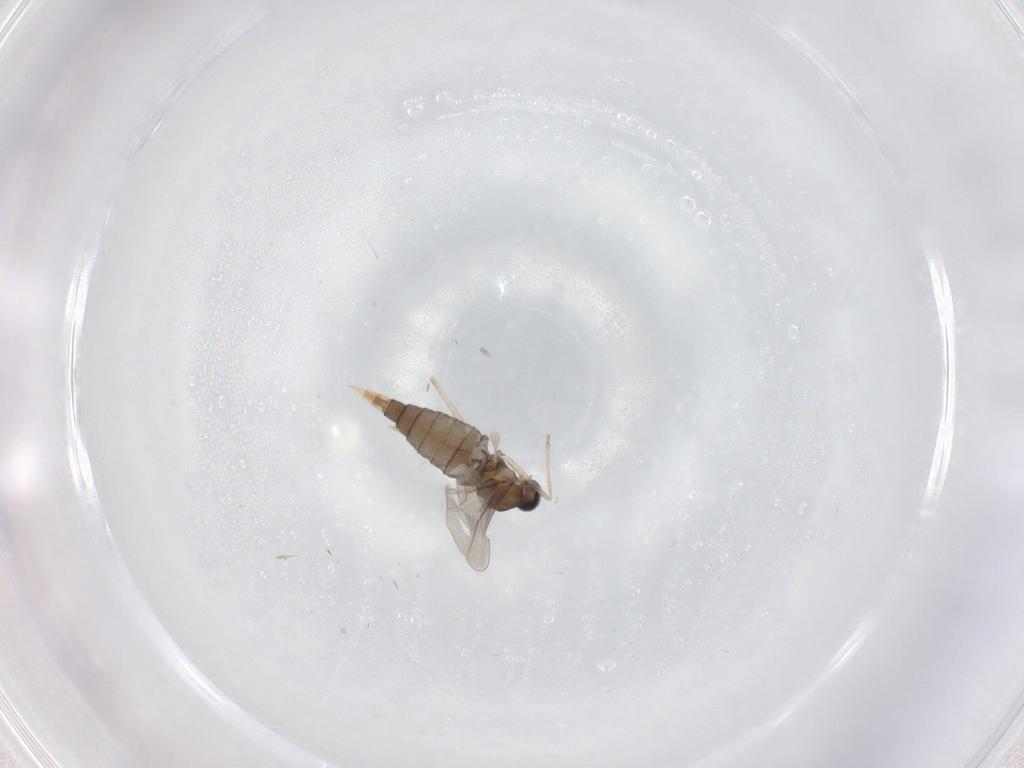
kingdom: Animalia
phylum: Arthropoda
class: Insecta
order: Diptera
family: Cecidomyiidae
